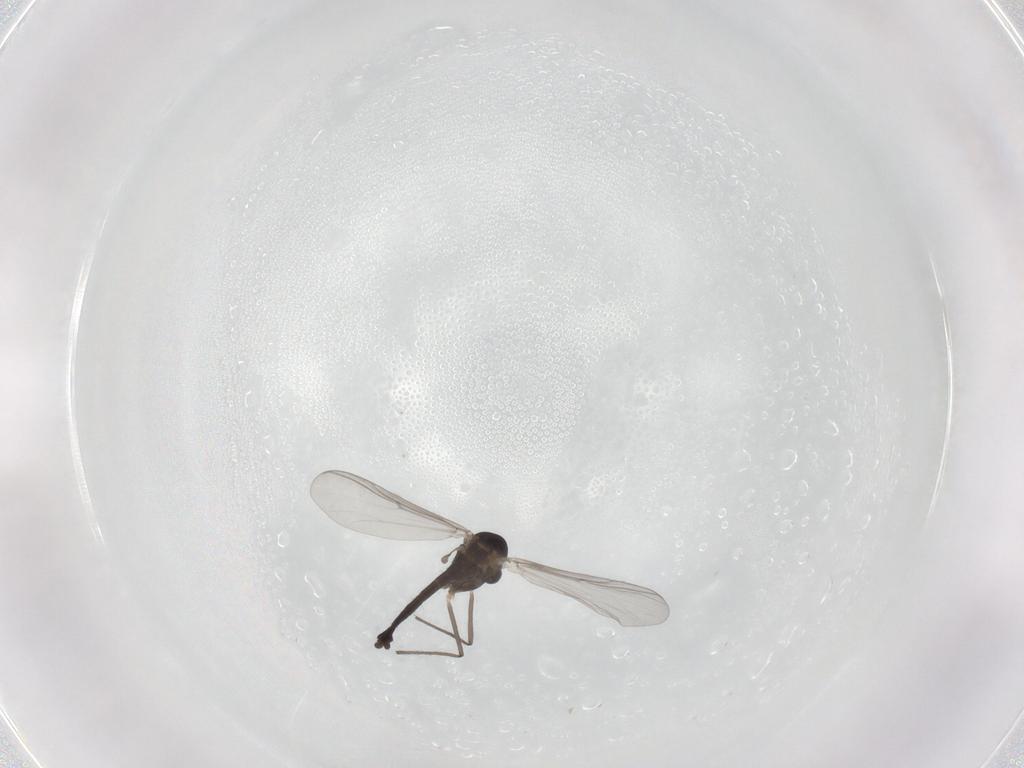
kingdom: Animalia
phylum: Arthropoda
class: Insecta
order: Diptera
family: Chironomidae
